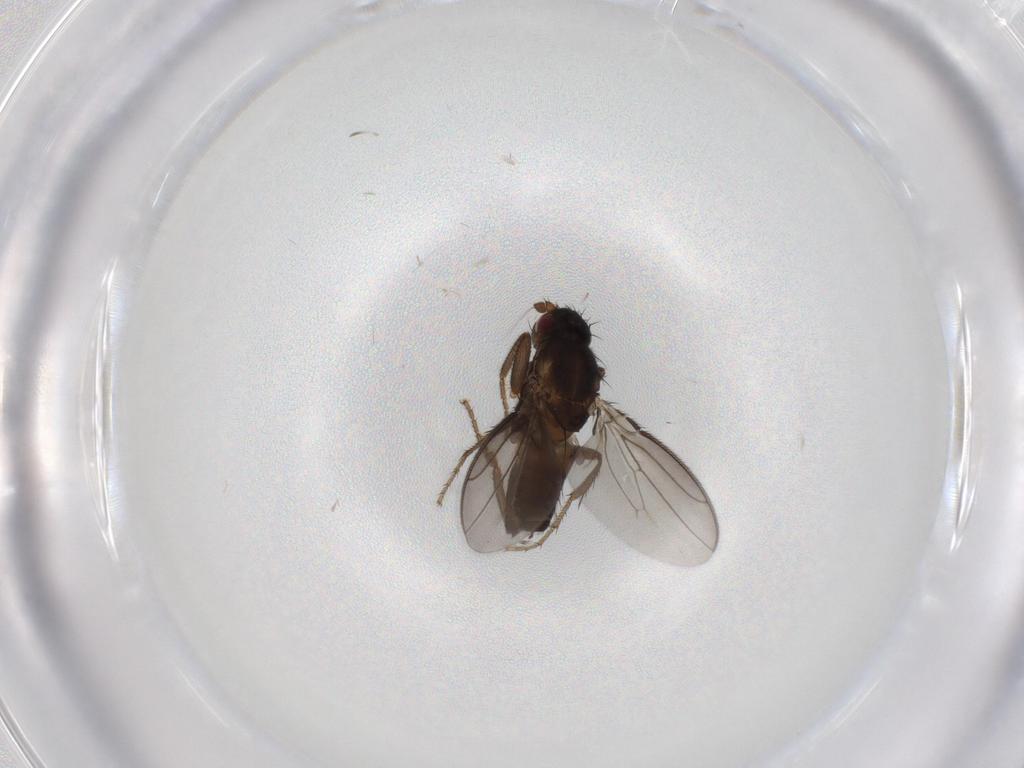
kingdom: Animalia
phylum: Arthropoda
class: Insecta
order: Diptera
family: Sphaeroceridae
